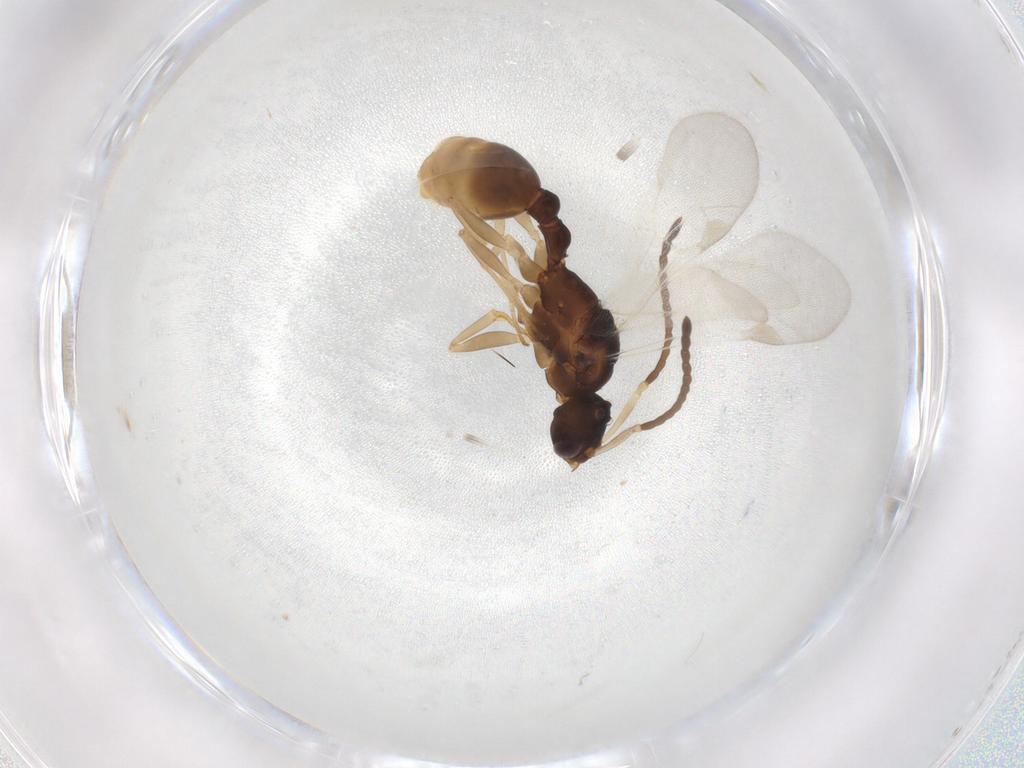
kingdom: Animalia
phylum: Arthropoda
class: Insecta
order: Hymenoptera
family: Formicidae
